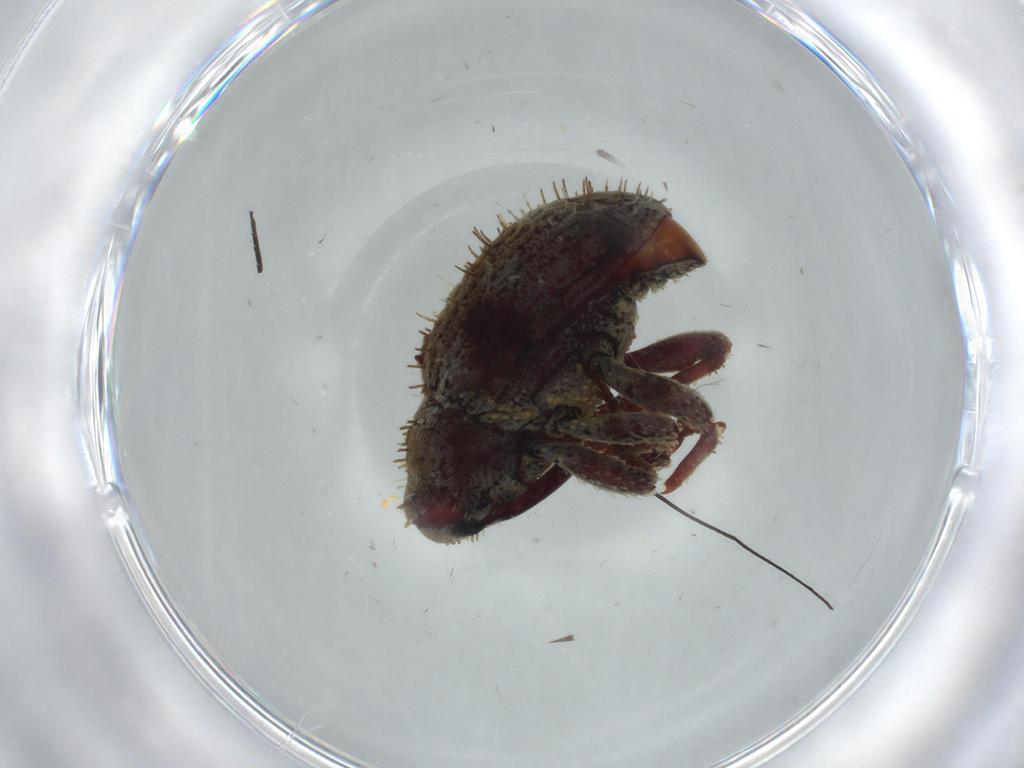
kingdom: Animalia
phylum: Arthropoda
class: Insecta
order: Coleoptera
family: Curculionidae
